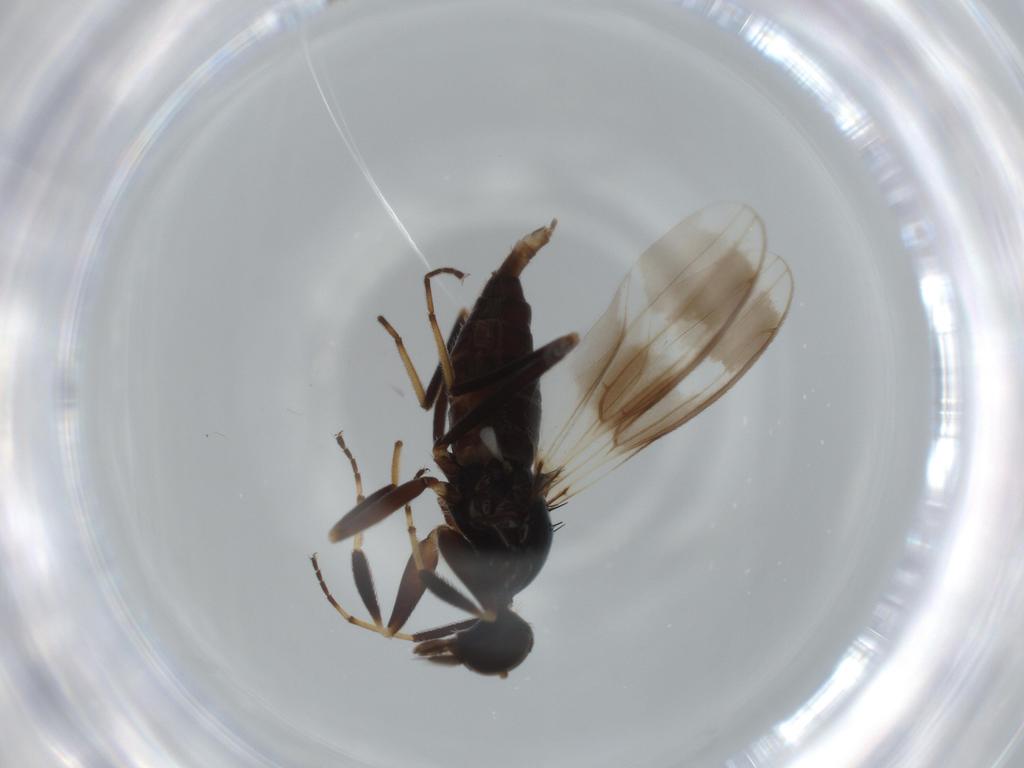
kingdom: Animalia
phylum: Arthropoda
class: Insecta
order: Diptera
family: Hybotidae
